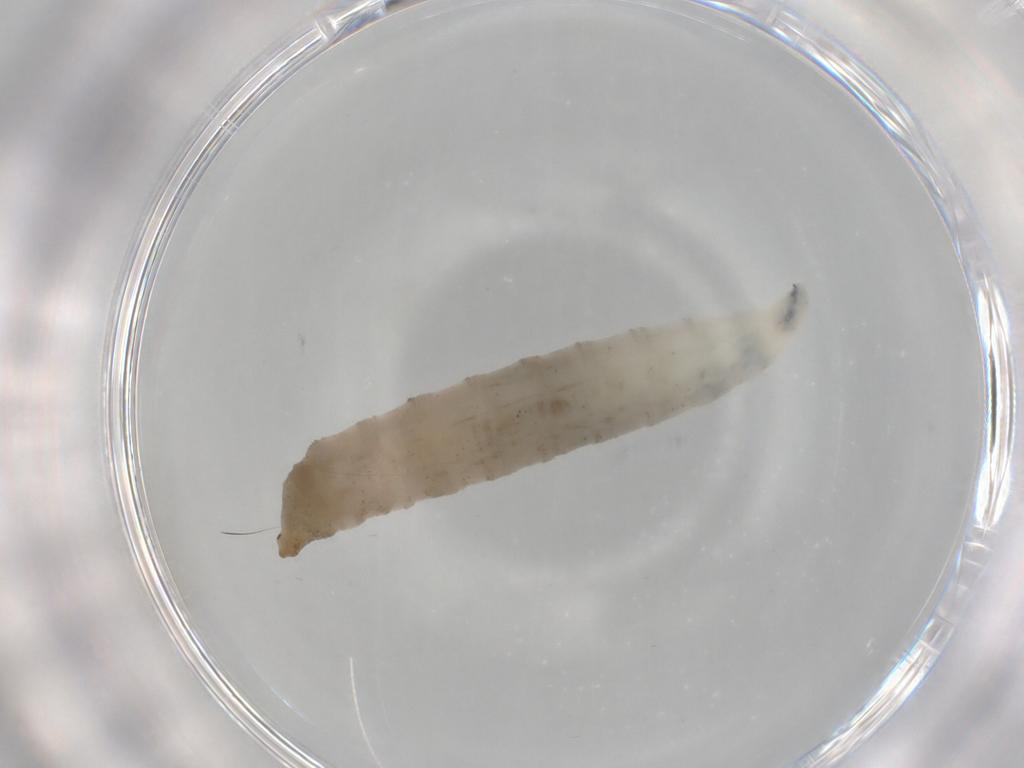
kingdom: Animalia
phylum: Arthropoda
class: Insecta
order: Diptera
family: Drosophilidae
